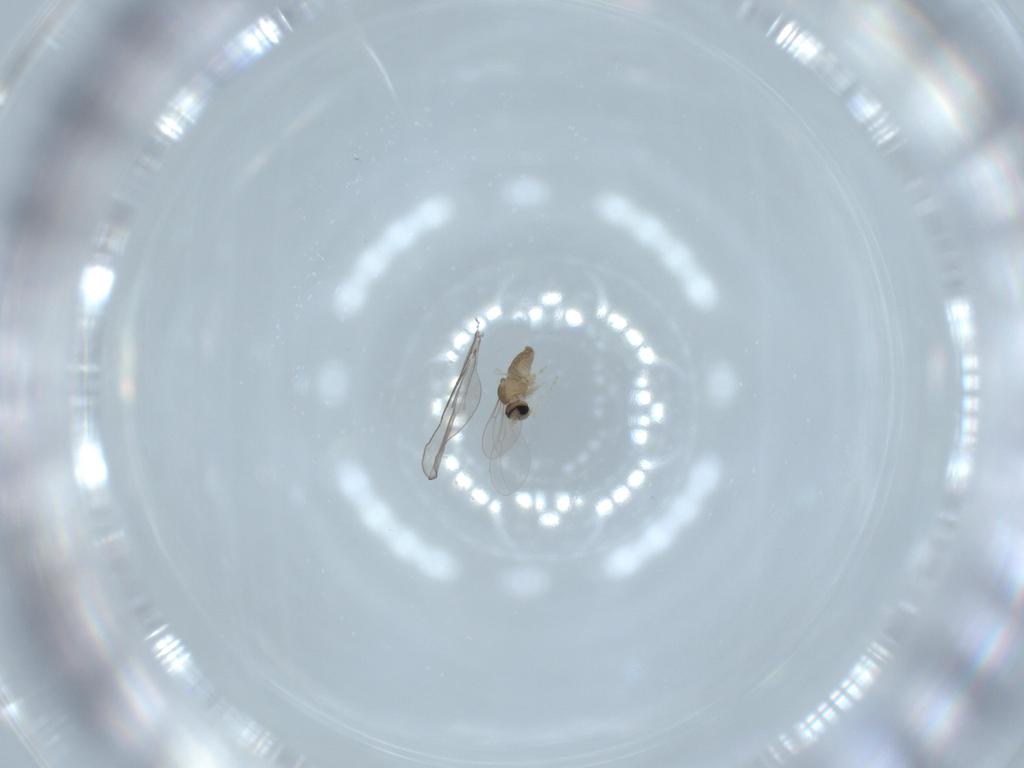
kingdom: Animalia
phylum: Arthropoda
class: Insecta
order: Diptera
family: Cecidomyiidae
